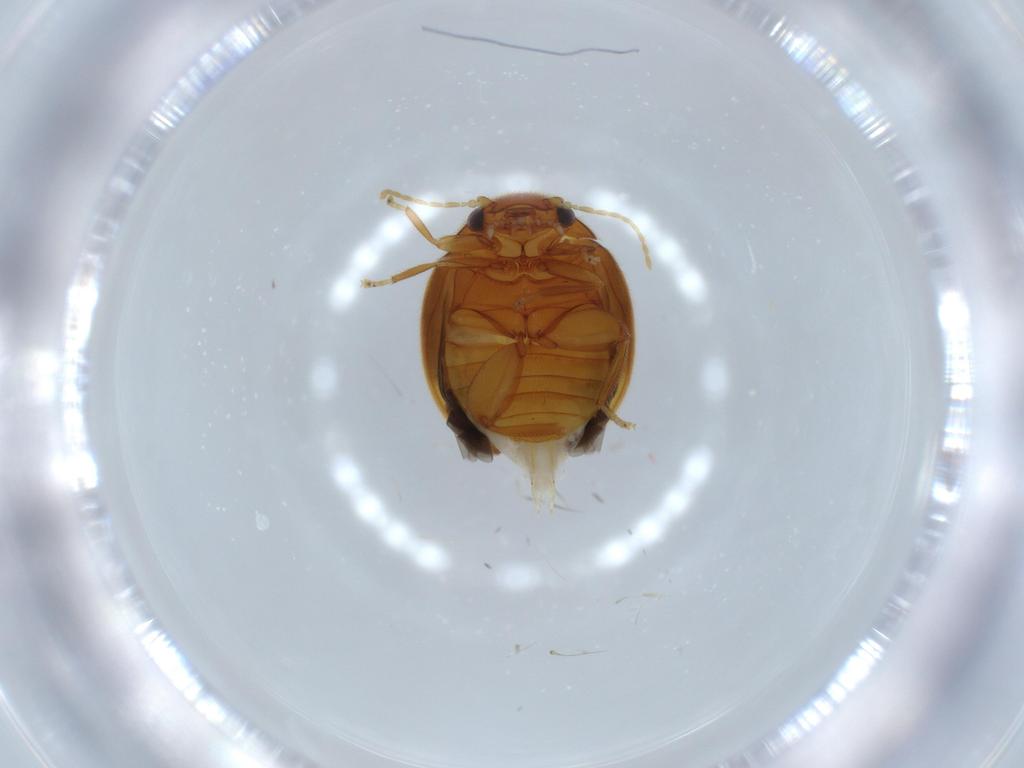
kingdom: Animalia
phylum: Arthropoda
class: Insecta
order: Coleoptera
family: Scirtidae
